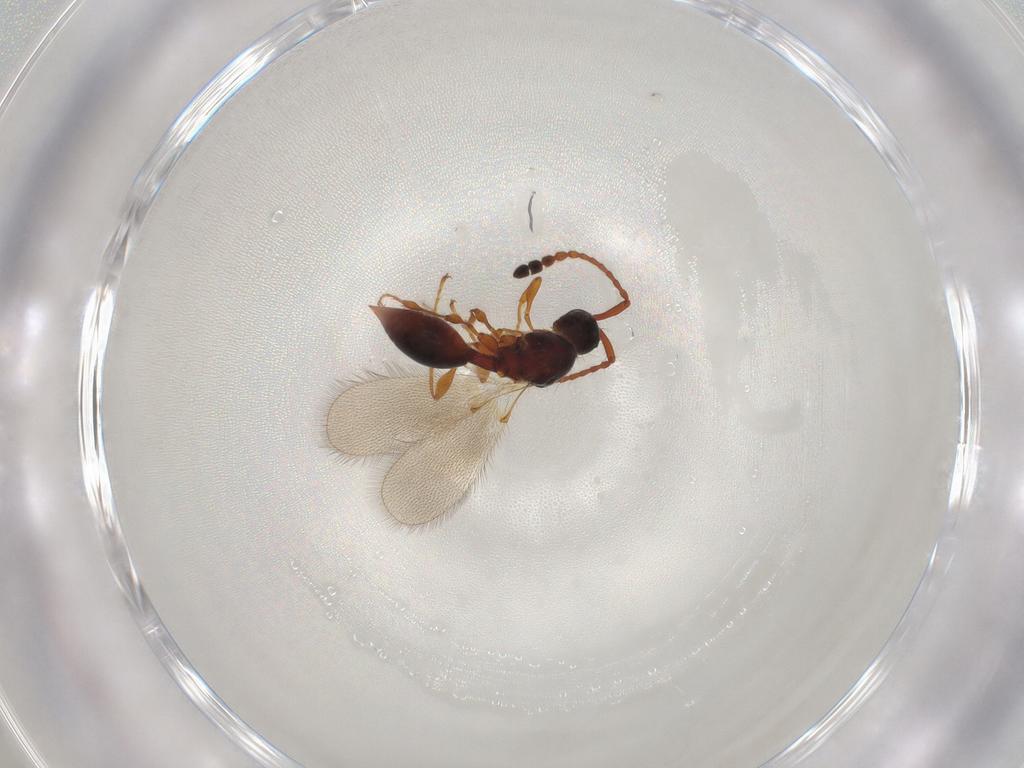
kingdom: Animalia
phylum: Arthropoda
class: Insecta
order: Hymenoptera
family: Diapriidae
